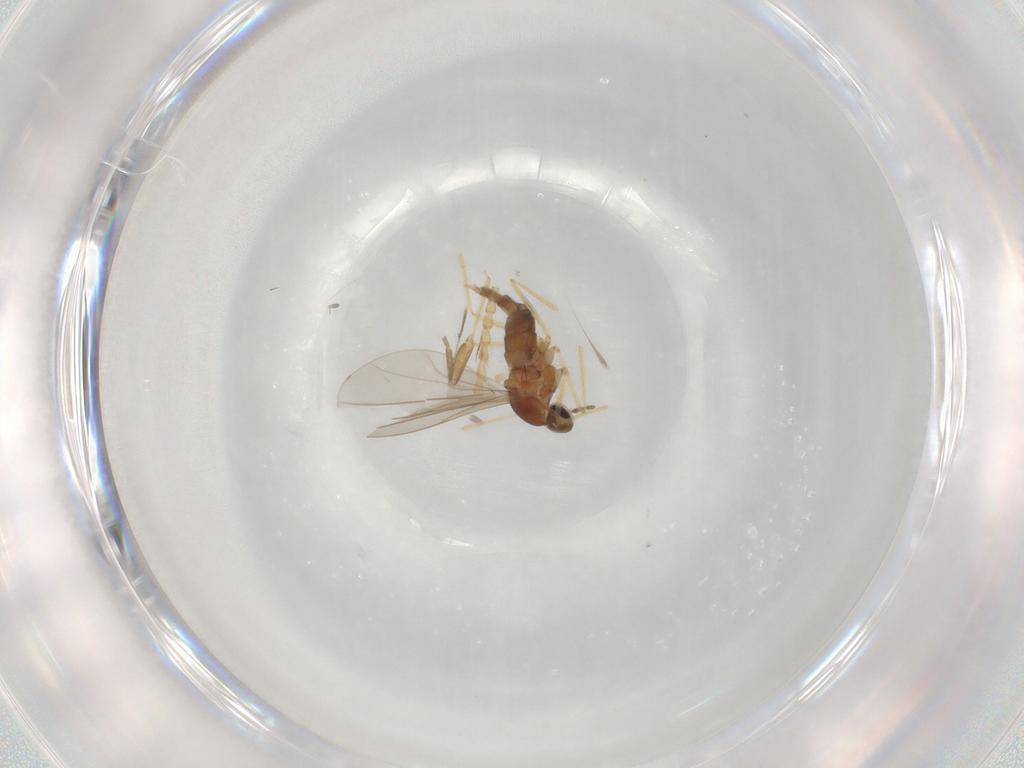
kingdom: Animalia
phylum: Arthropoda
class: Insecta
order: Diptera
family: Cecidomyiidae
